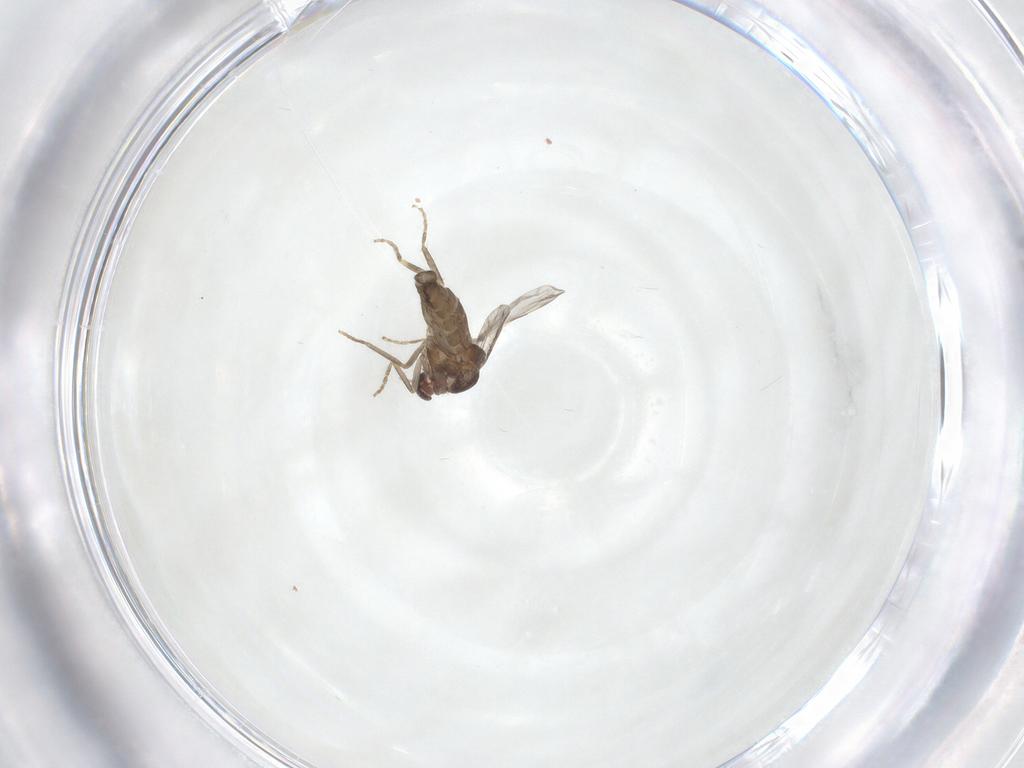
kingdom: Animalia
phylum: Arthropoda
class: Insecta
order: Diptera
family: Ceratopogonidae
